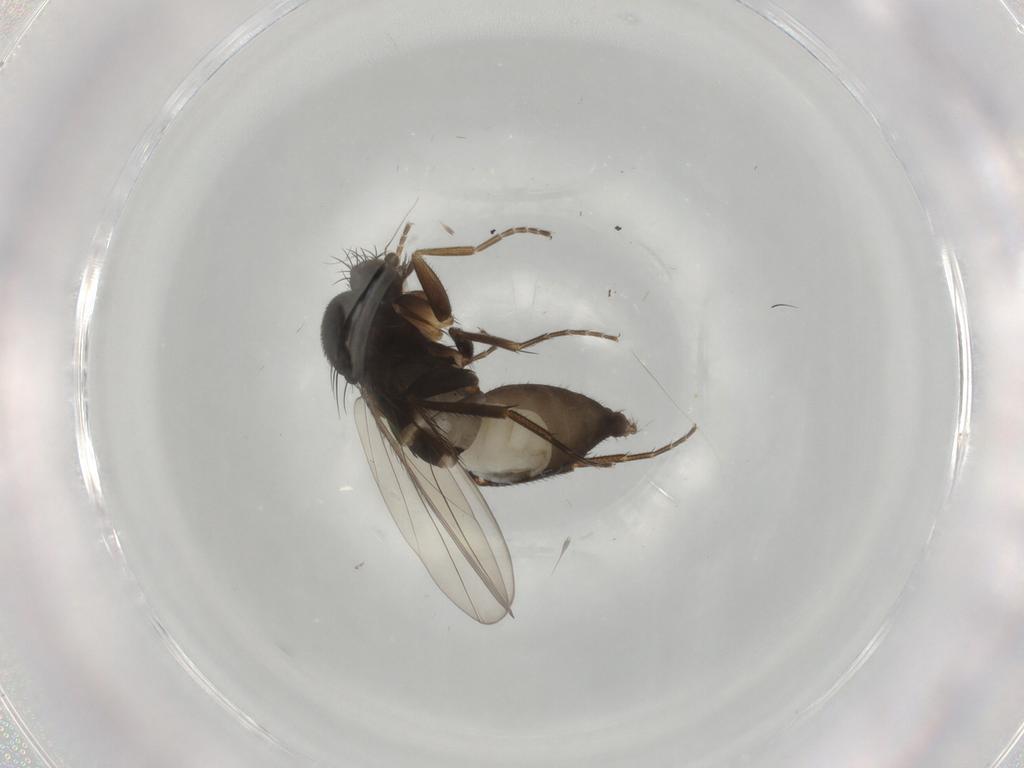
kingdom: Animalia
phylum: Arthropoda
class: Insecta
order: Diptera
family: Phoridae
